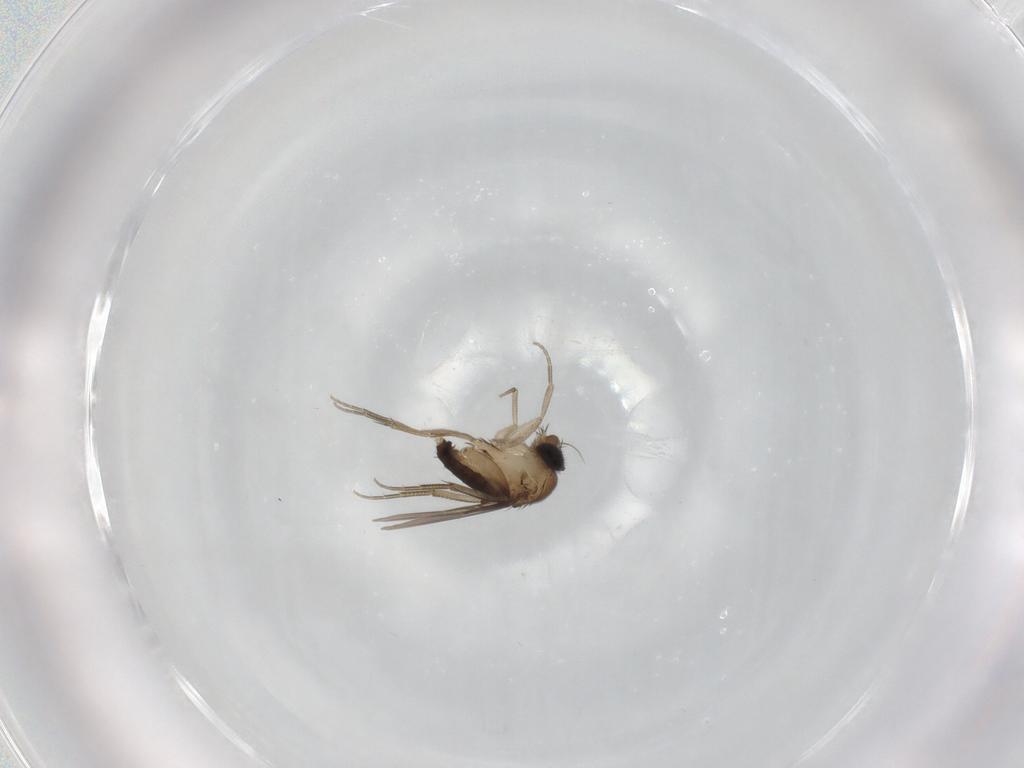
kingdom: Animalia
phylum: Arthropoda
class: Insecta
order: Diptera
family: Phoridae
